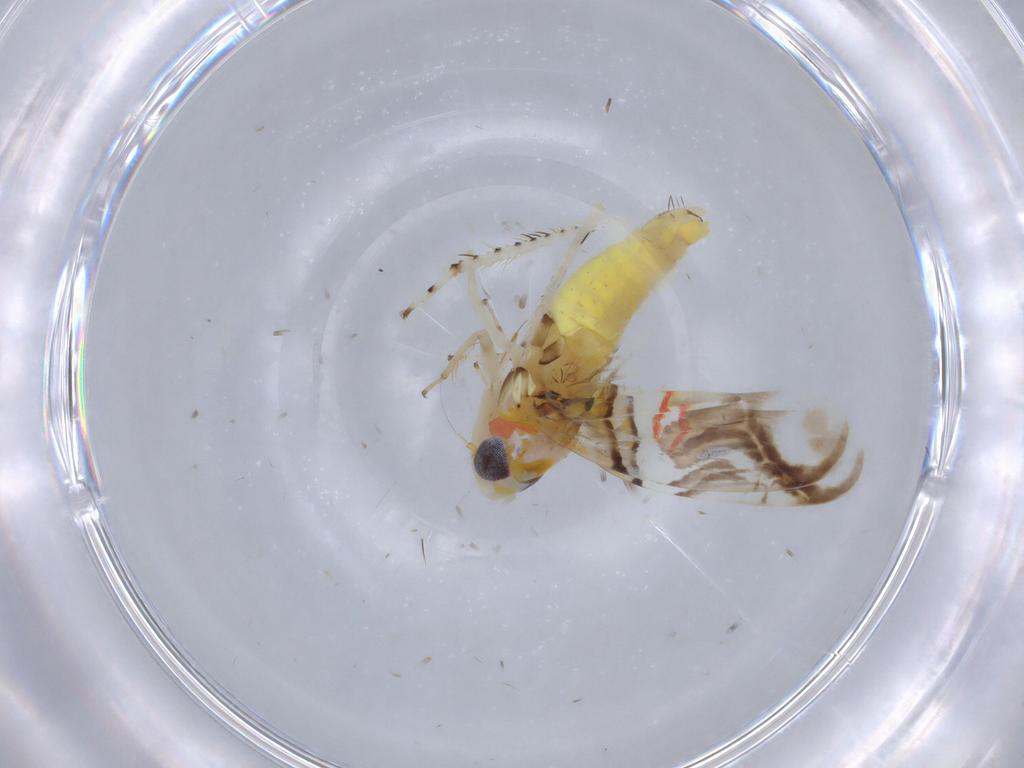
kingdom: Animalia
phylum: Arthropoda
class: Insecta
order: Hemiptera
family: Cicadellidae
